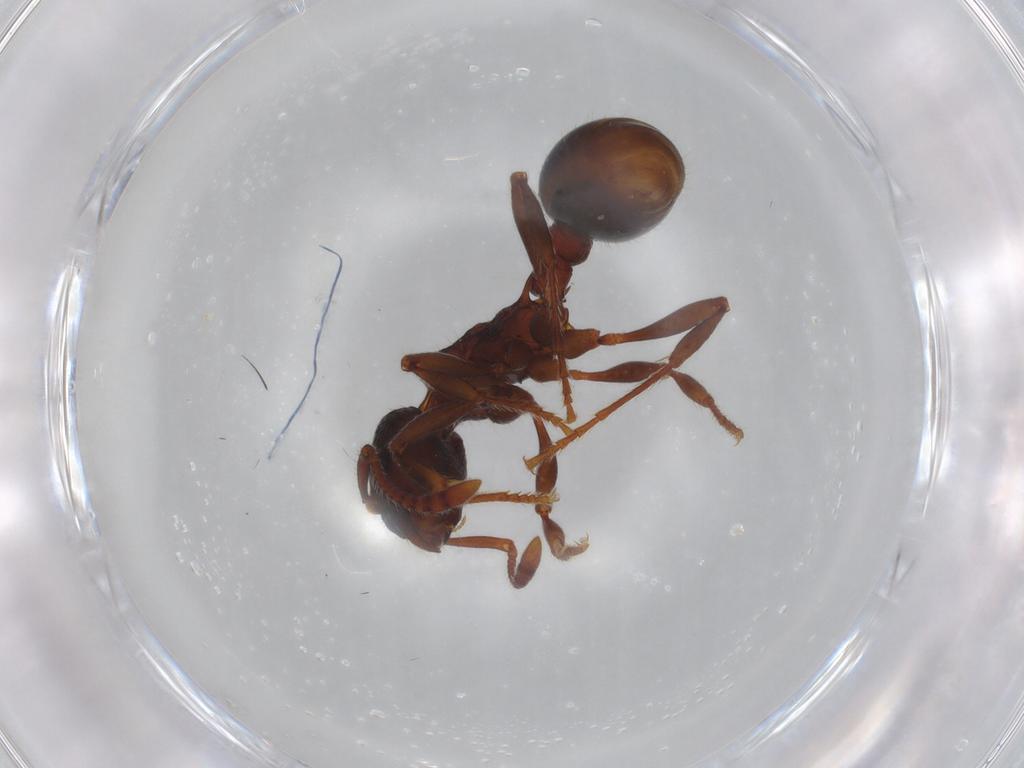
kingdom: Animalia
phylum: Arthropoda
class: Insecta
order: Hymenoptera
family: Formicidae
